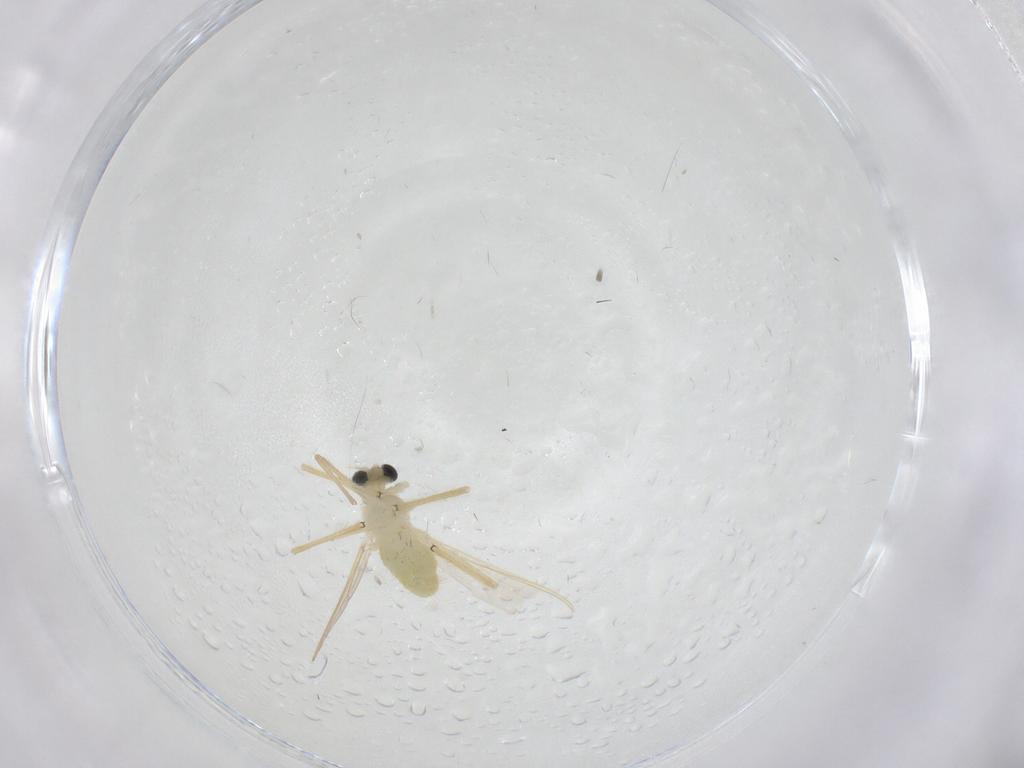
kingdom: Animalia
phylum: Arthropoda
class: Insecta
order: Diptera
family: Chironomidae
